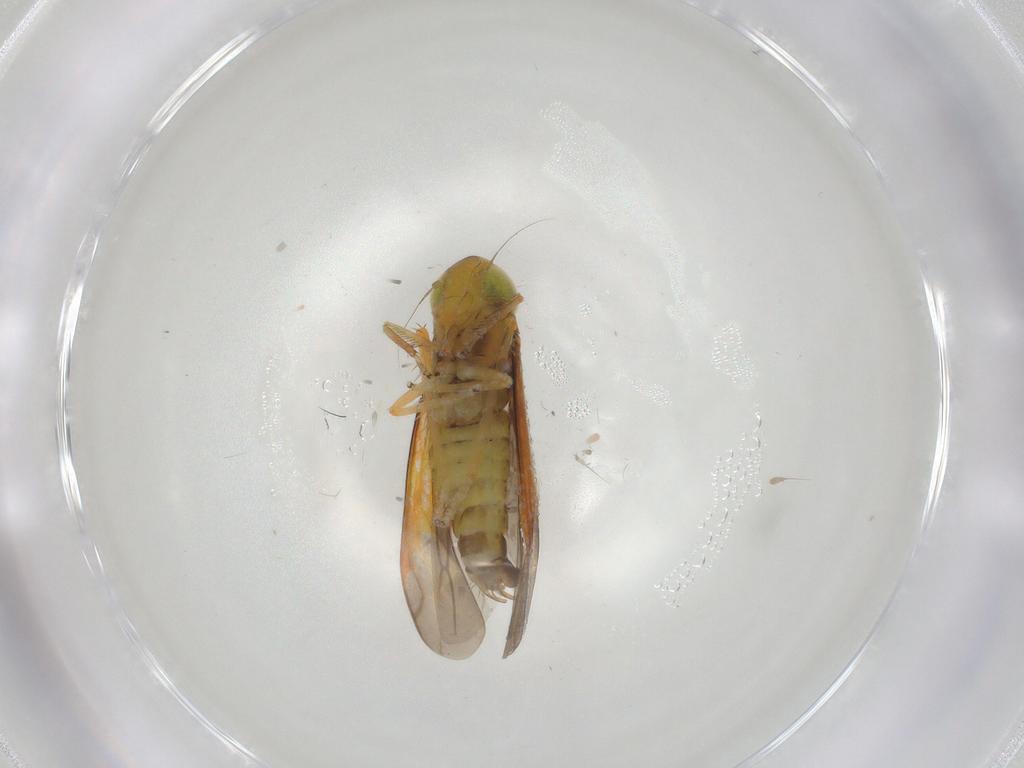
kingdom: Animalia
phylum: Arthropoda
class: Insecta
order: Hemiptera
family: Cicadellidae
